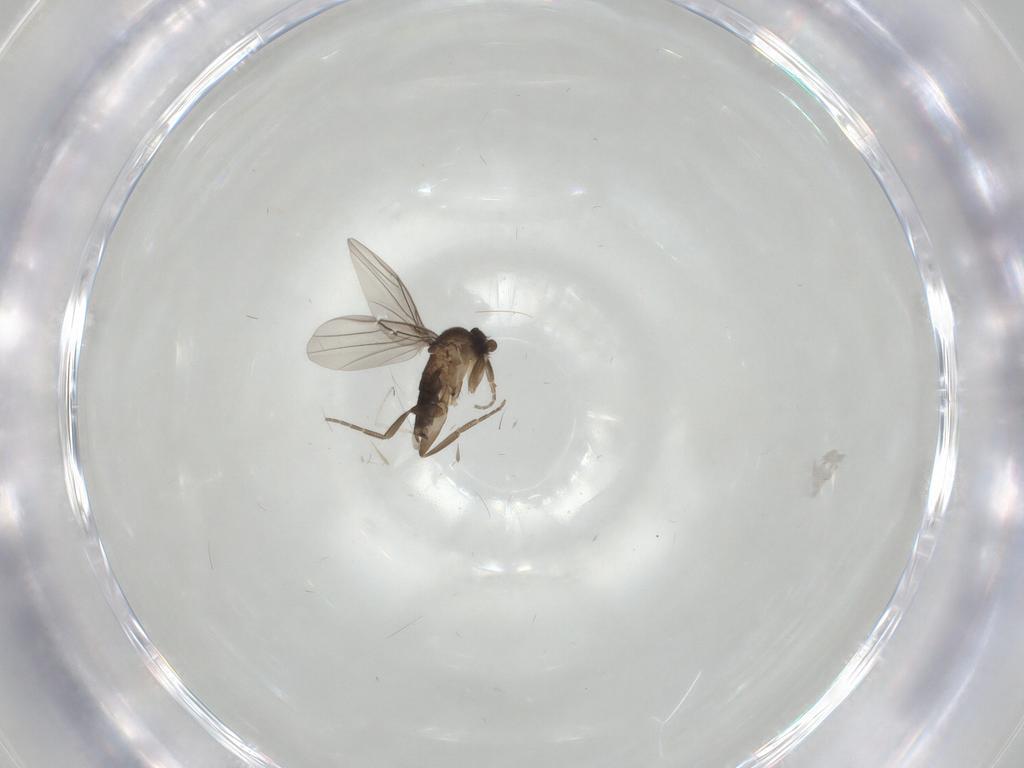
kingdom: Animalia
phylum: Arthropoda
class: Insecta
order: Diptera
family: Cecidomyiidae
